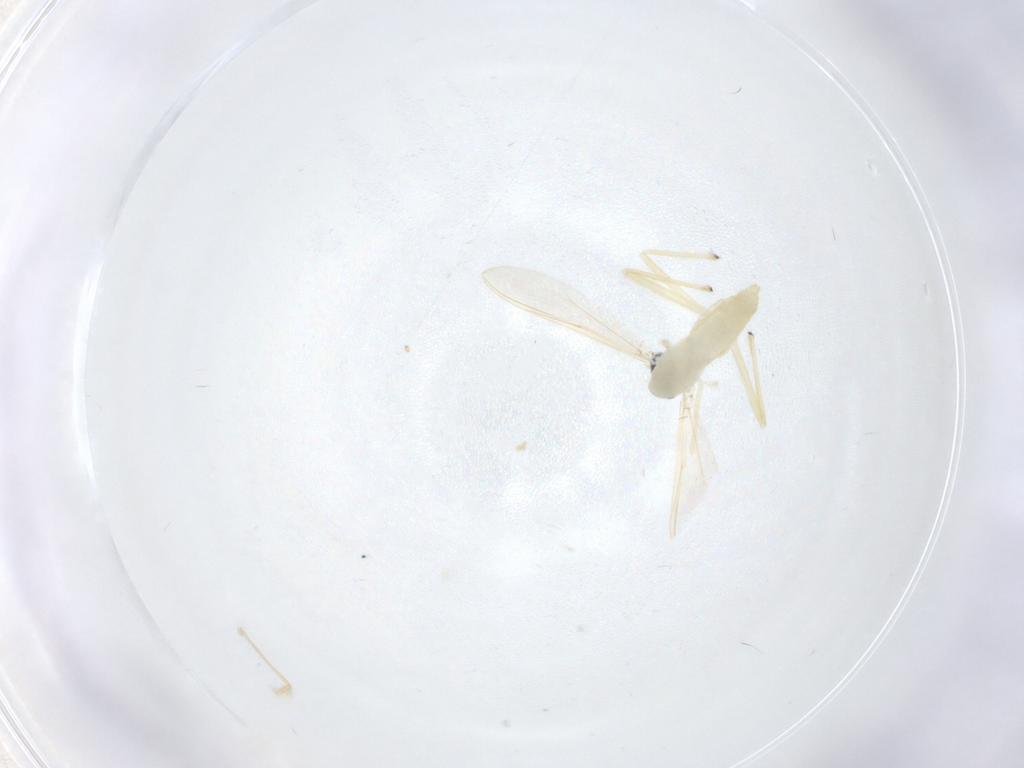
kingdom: Animalia
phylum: Arthropoda
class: Insecta
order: Diptera
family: Chironomidae
